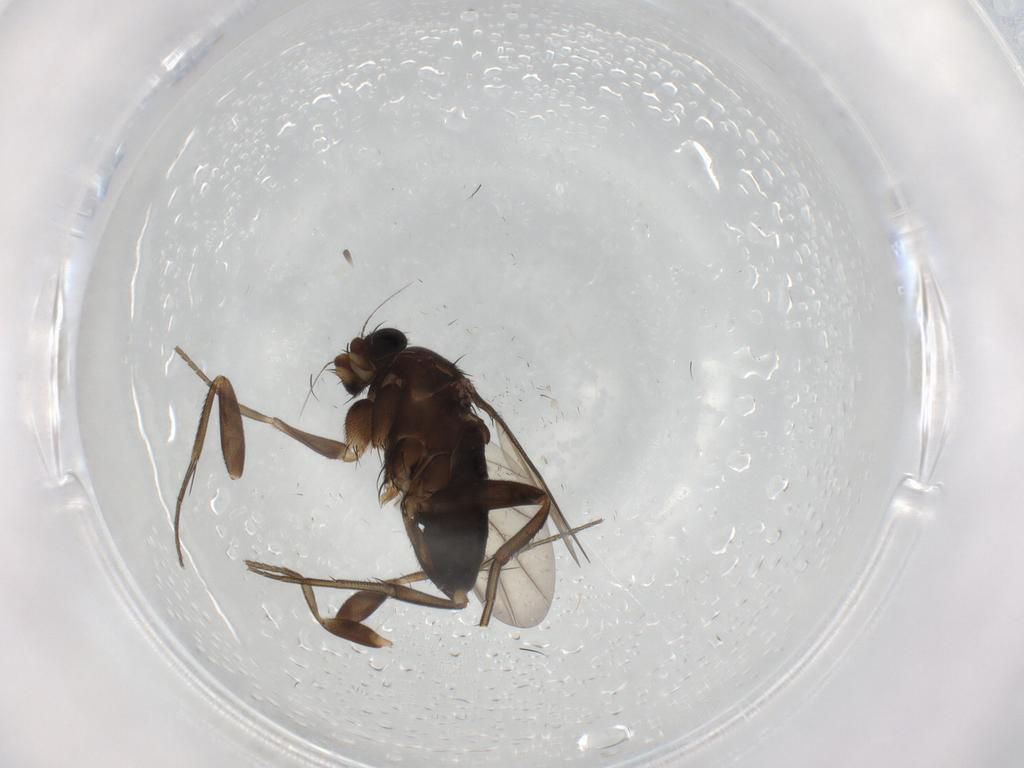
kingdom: Animalia
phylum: Arthropoda
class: Insecta
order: Diptera
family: Phoridae
